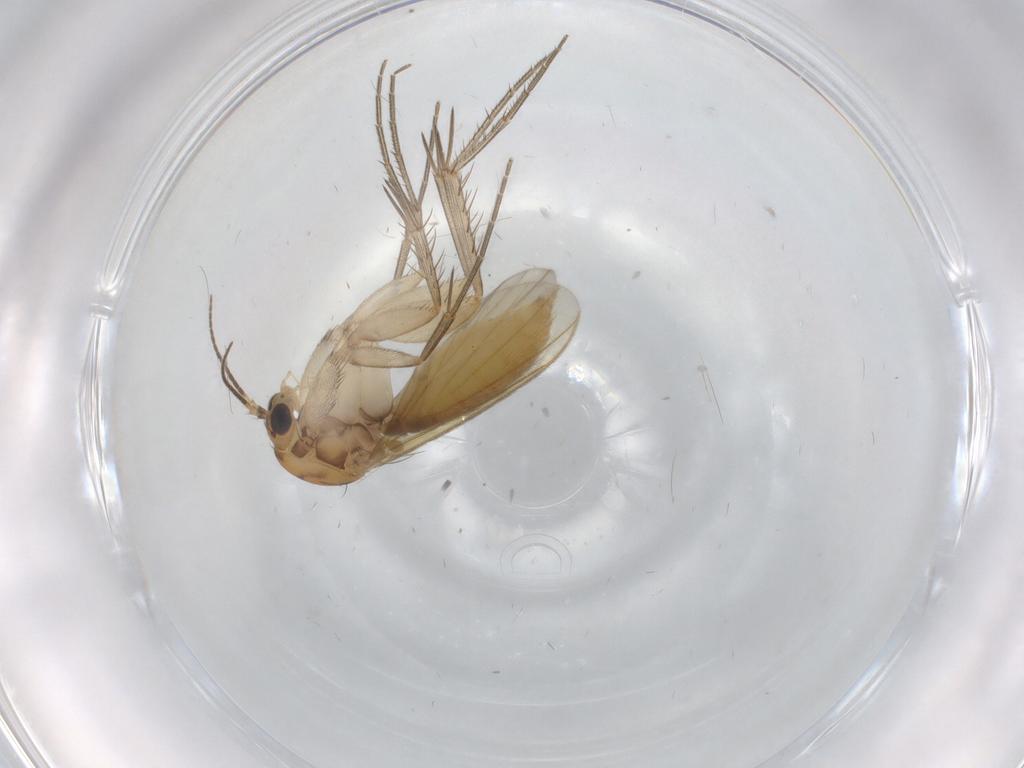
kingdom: Animalia
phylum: Arthropoda
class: Insecta
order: Diptera
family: Mycetophilidae
